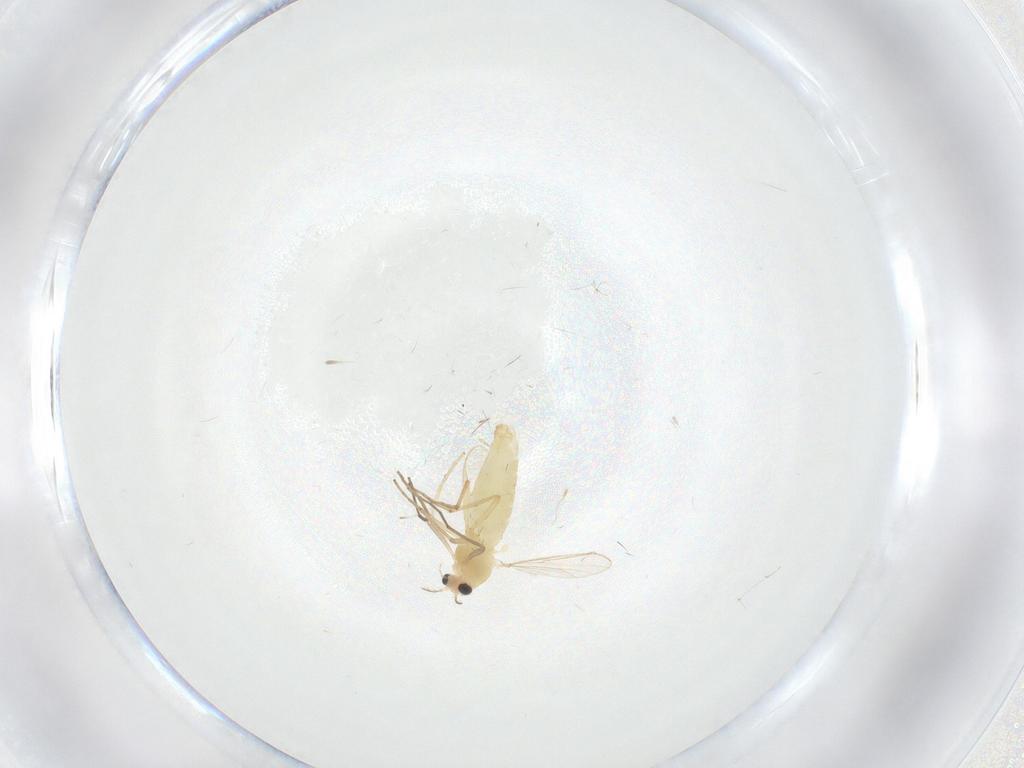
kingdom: Animalia
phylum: Arthropoda
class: Insecta
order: Diptera
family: Chironomidae
